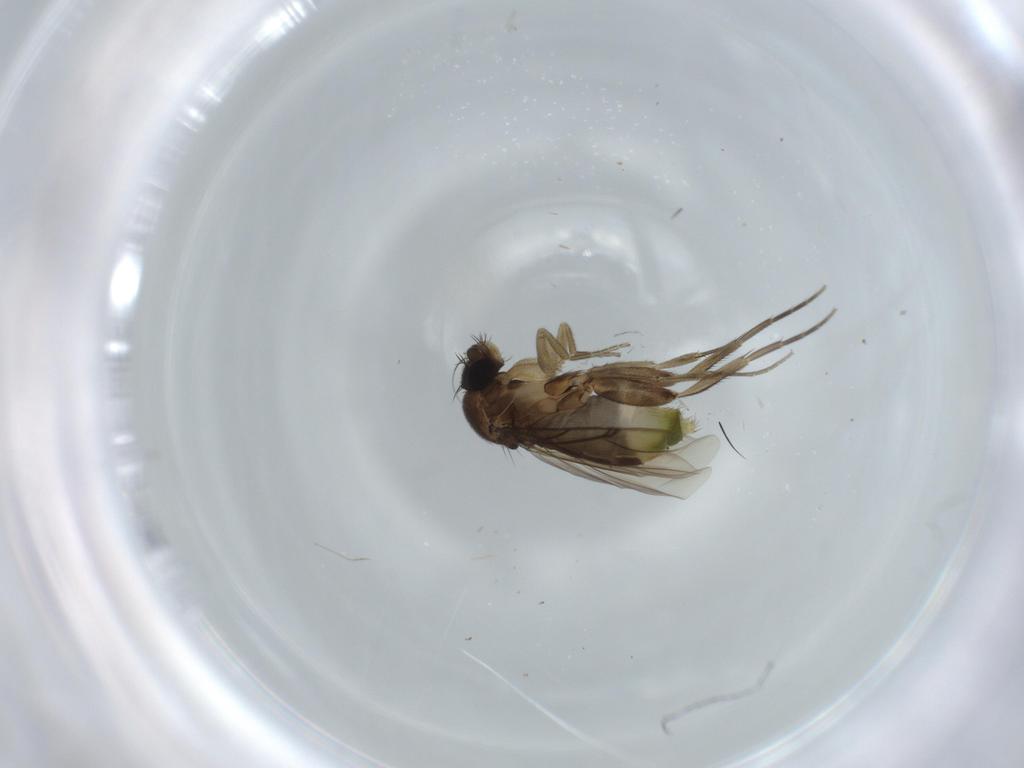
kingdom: Animalia
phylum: Arthropoda
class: Insecta
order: Diptera
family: Phoridae
